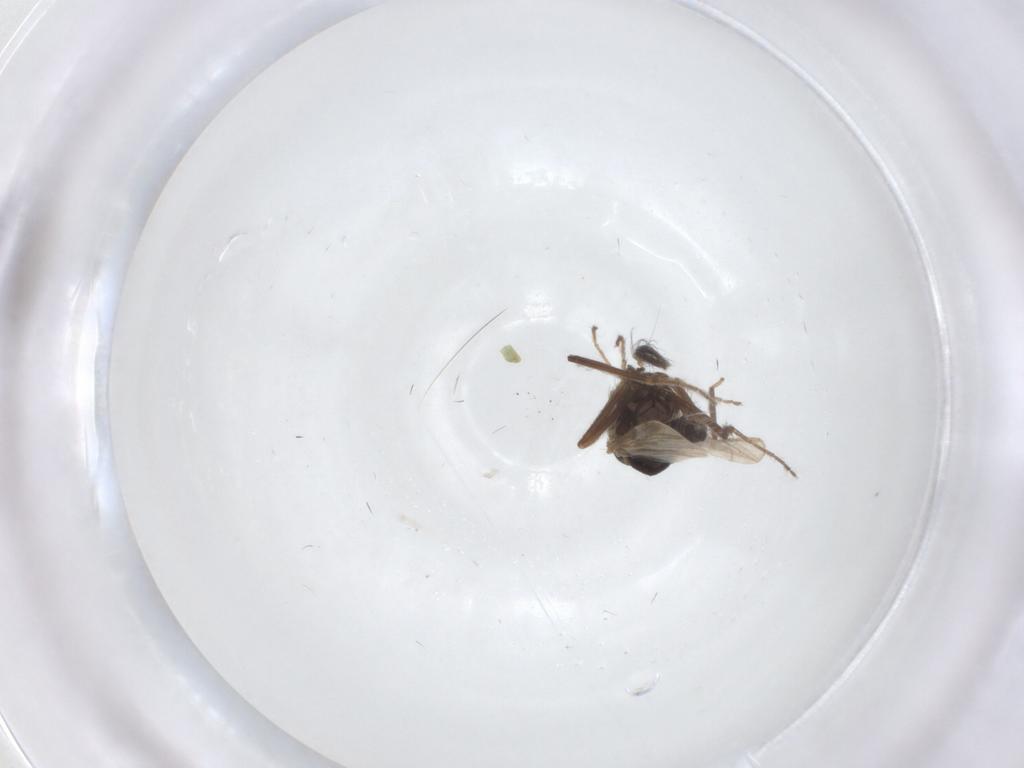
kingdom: Animalia
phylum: Arthropoda
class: Insecta
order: Diptera
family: Ceratopogonidae
